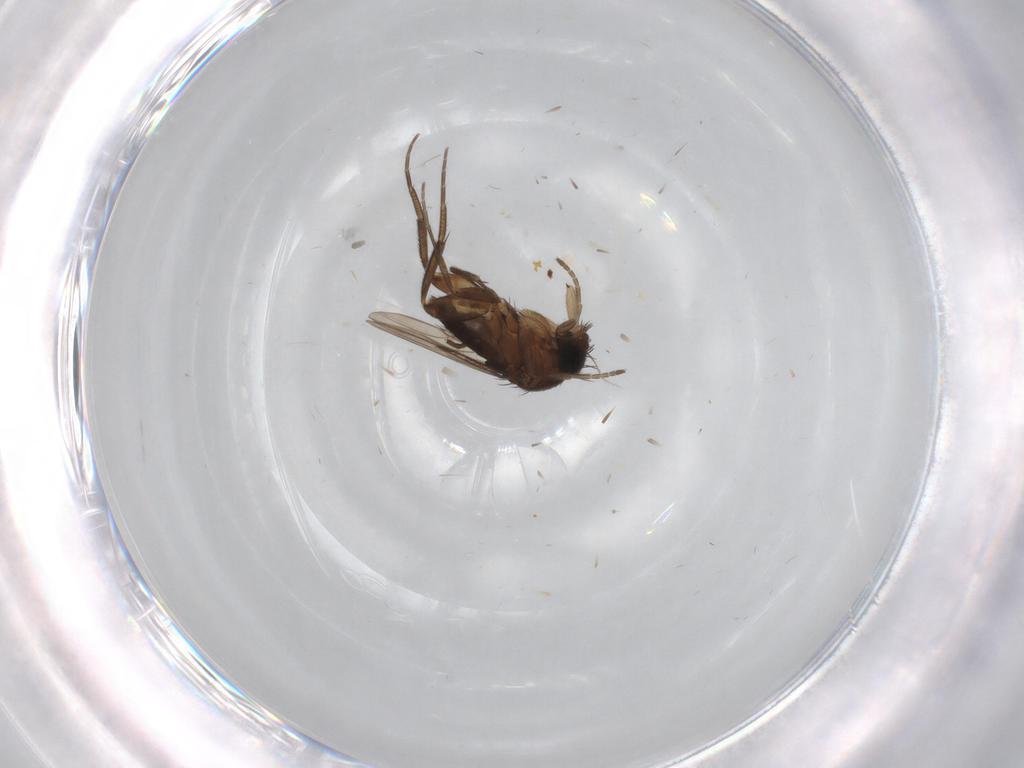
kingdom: Animalia
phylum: Arthropoda
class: Insecta
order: Diptera
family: Phoridae
